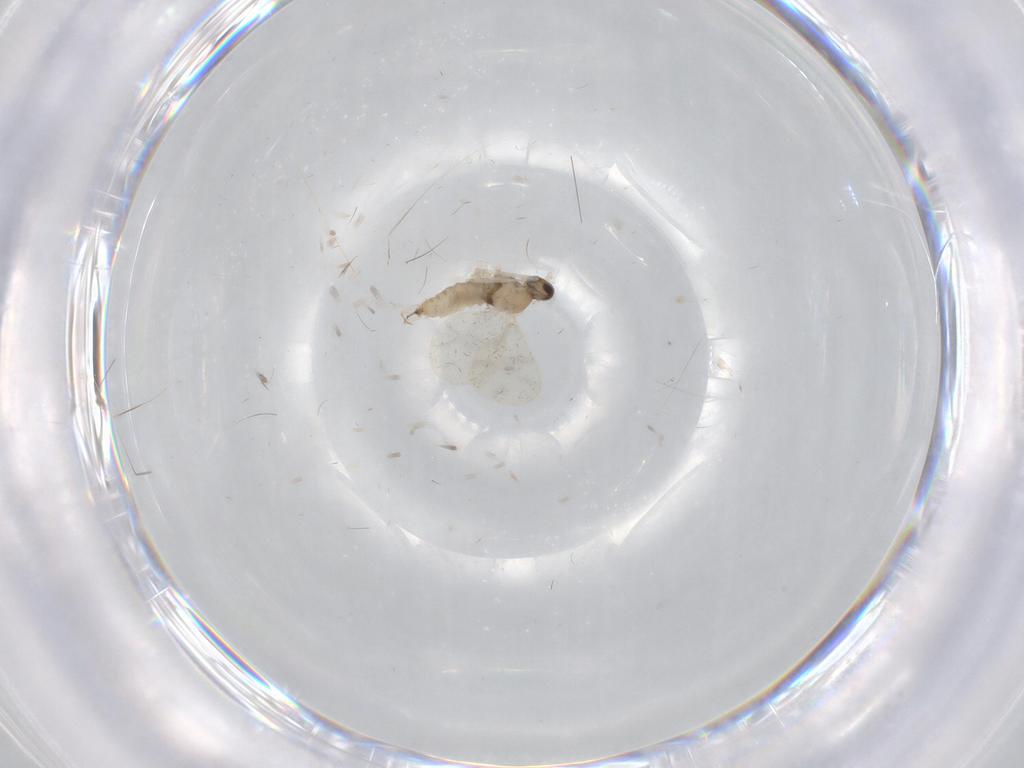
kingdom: Animalia
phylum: Arthropoda
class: Insecta
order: Diptera
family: Cecidomyiidae
